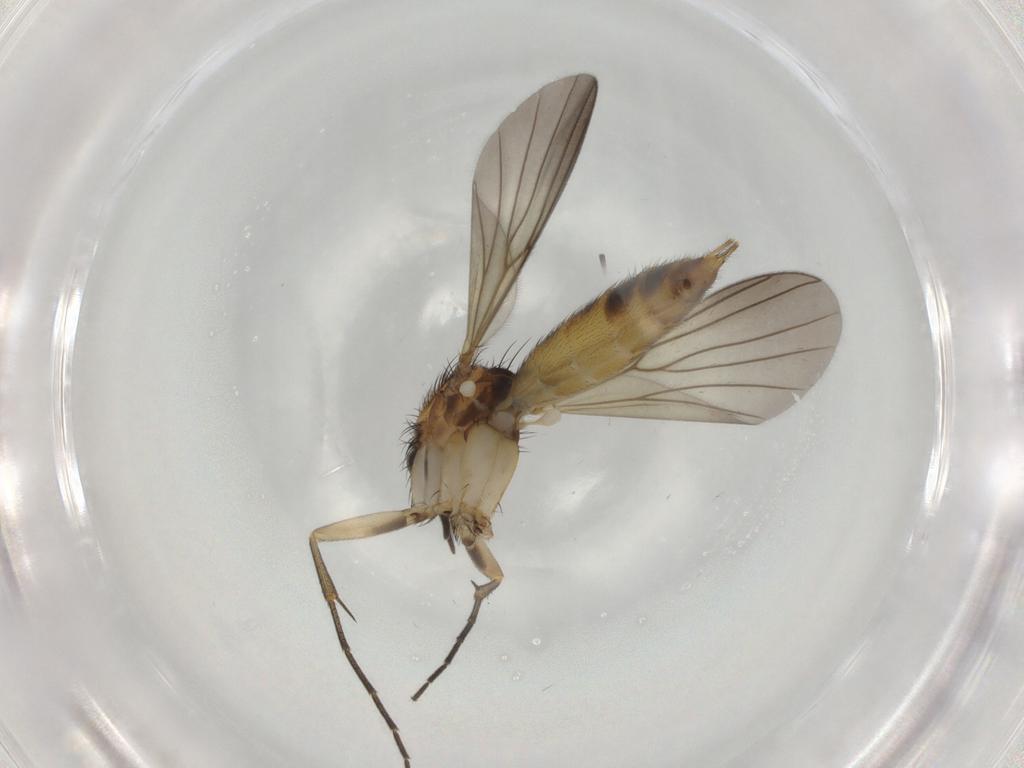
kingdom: Animalia
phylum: Arthropoda
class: Insecta
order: Diptera
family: Mycetophilidae
